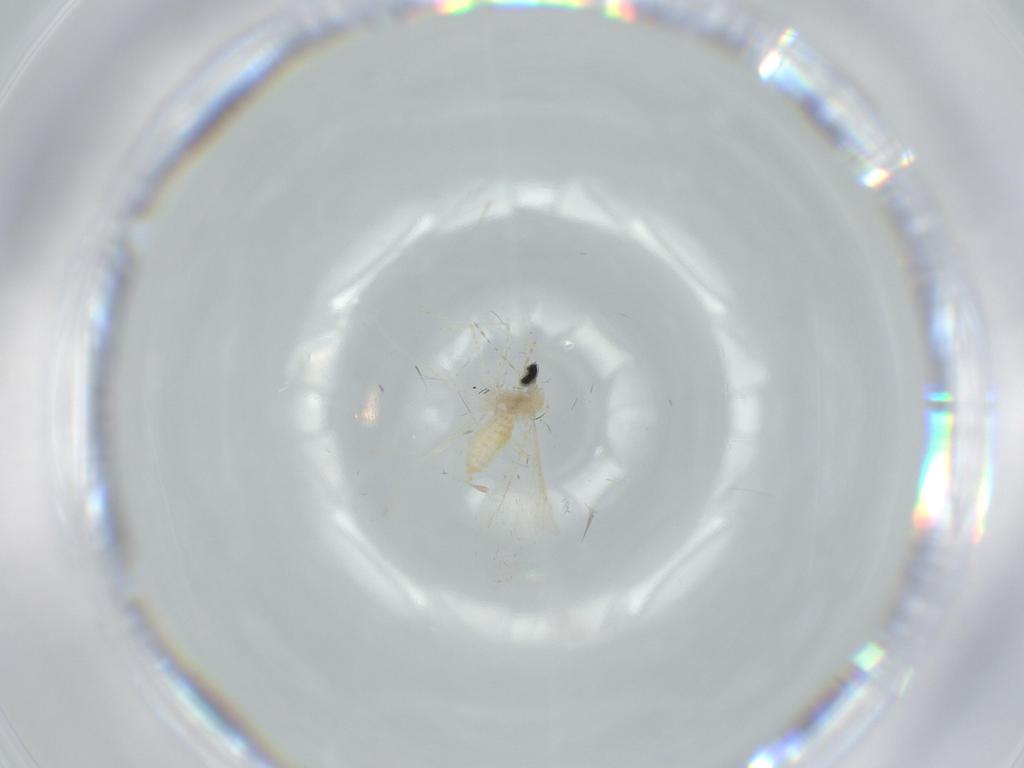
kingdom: Animalia
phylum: Arthropoda
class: Insecta
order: Diptera
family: Cecidomyiidae
